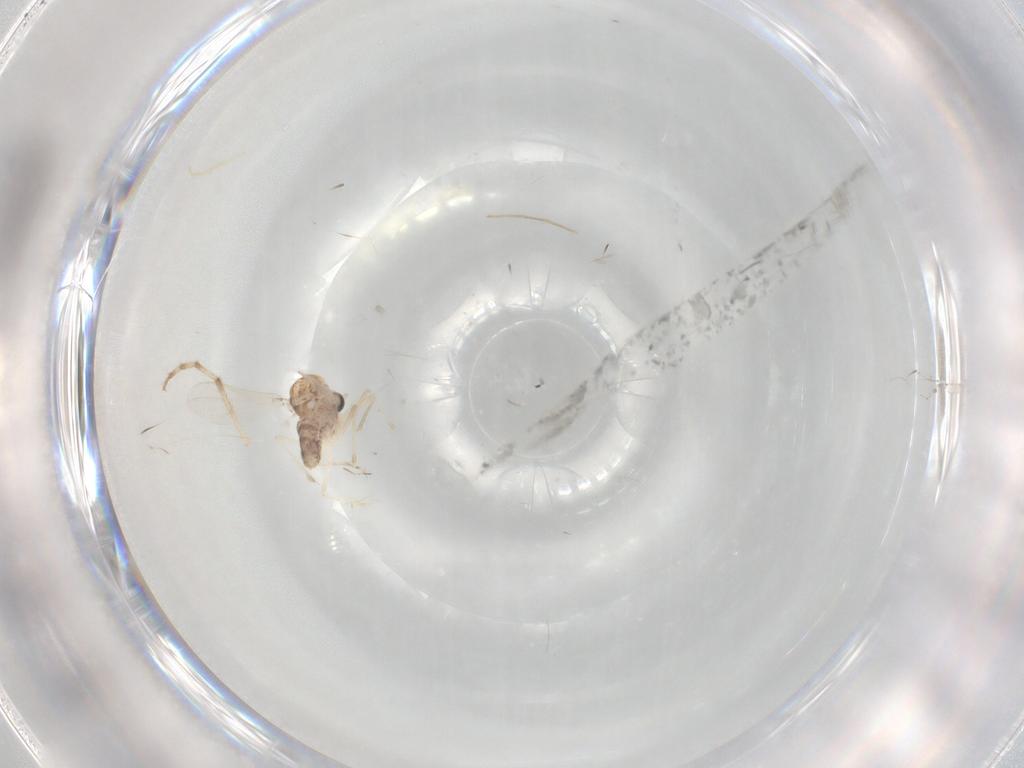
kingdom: Animalia
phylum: Arthropoda
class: Insecta
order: Diptera
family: Chironomidae
